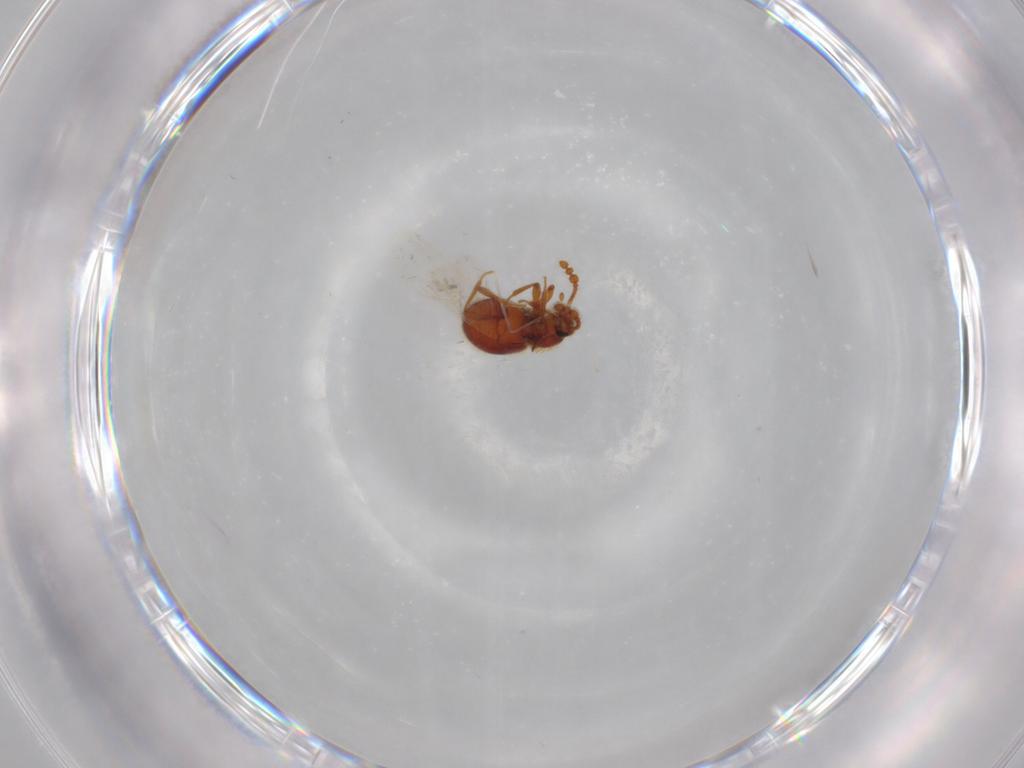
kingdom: Animalia
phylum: Arthropoda
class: Insecta
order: Coleoptera
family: Staphylinidae
